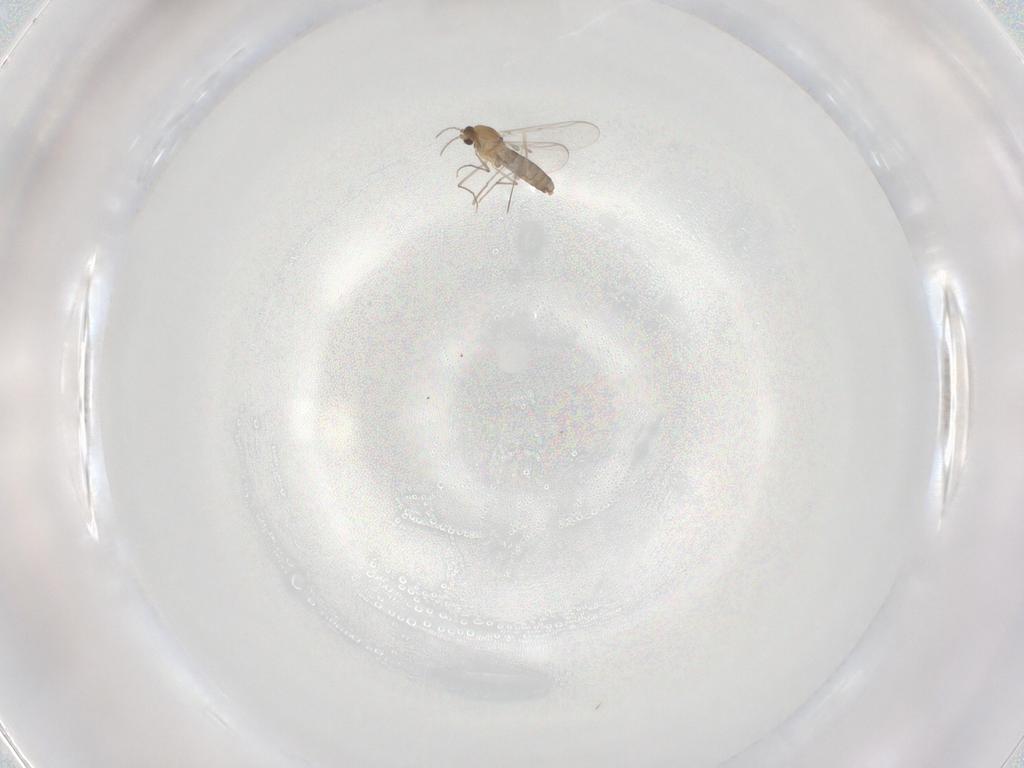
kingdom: Animalia
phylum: Arthropoda
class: Insecta
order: Diptera
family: Chironomidae
